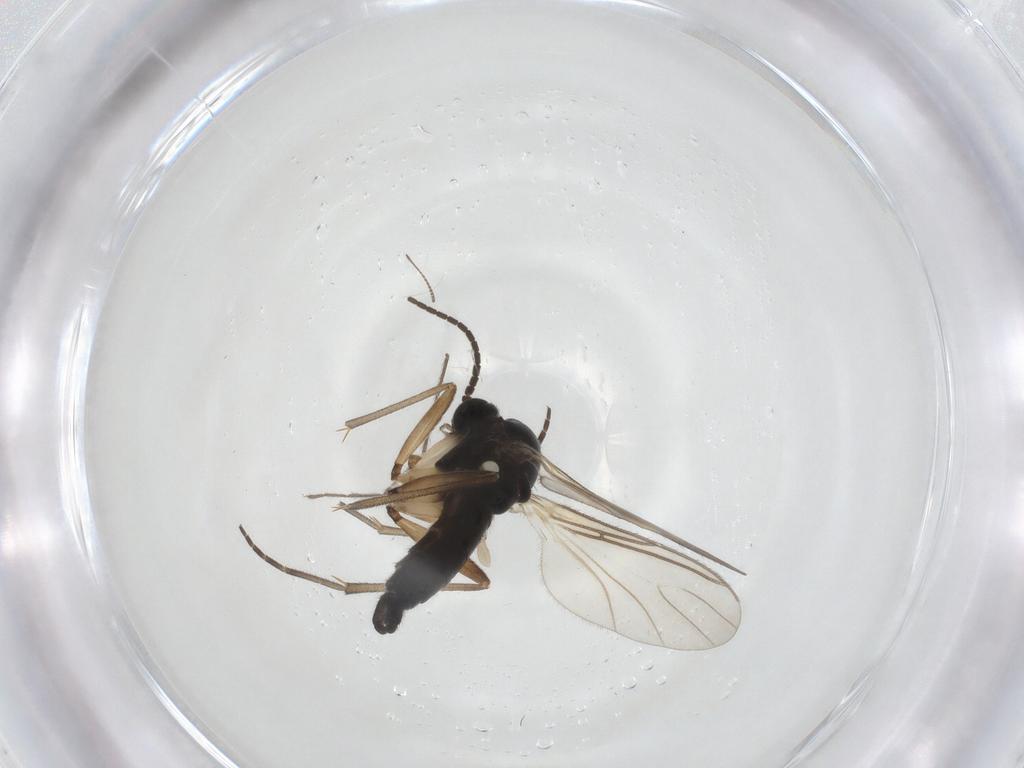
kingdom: Animalia
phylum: Arthropoda
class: Insecta
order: Diptera
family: Sciaridae
